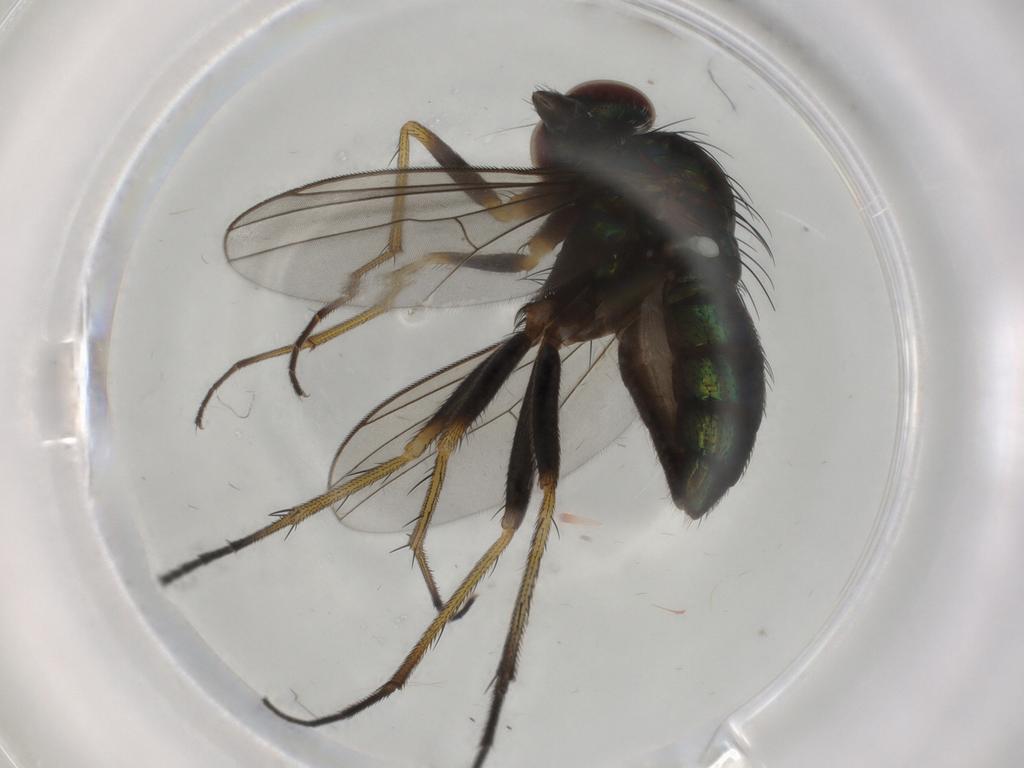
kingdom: Animalia
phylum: Arthropoda
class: Insecta
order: Diptera
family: Dolichopodidae
